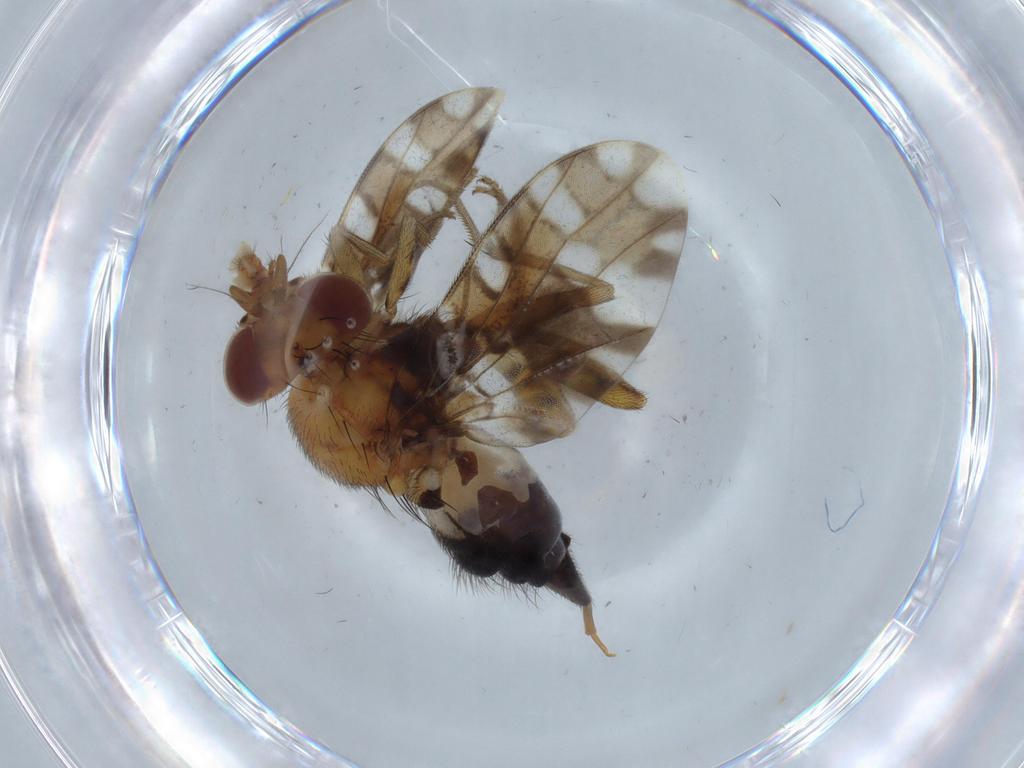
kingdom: Animalia
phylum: Arthropoda
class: Insecta
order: Diptera
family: Ulidiidae
